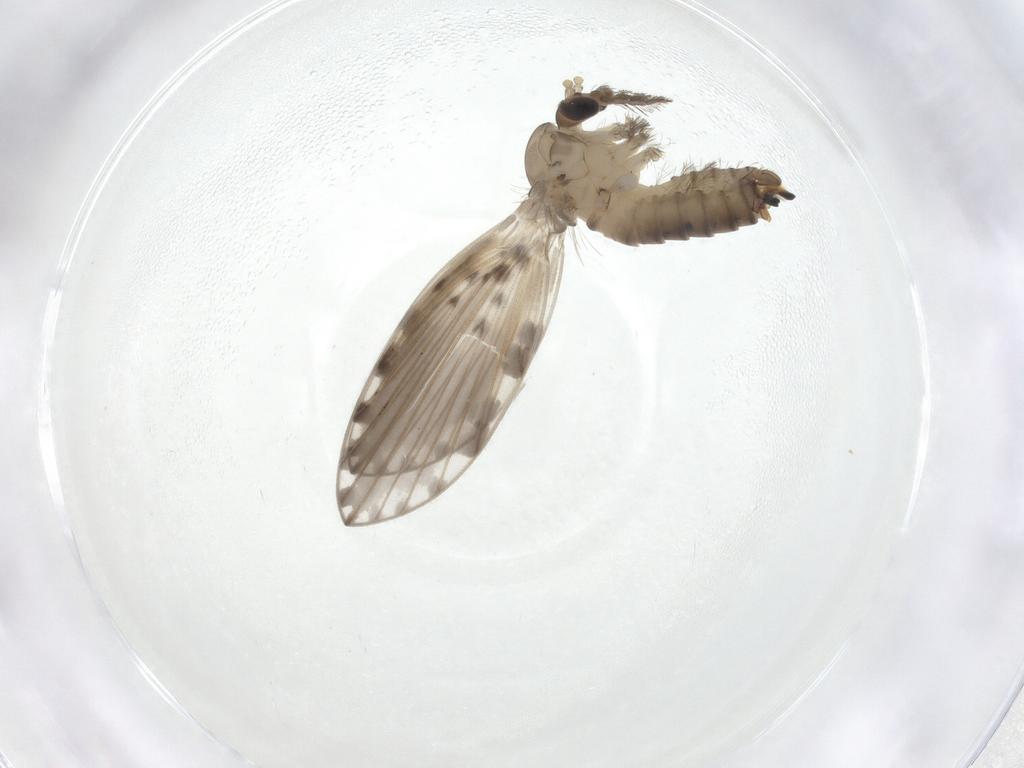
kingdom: Animalia
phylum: Arthropoda
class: Insecta
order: Diptera
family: Psychodidae
